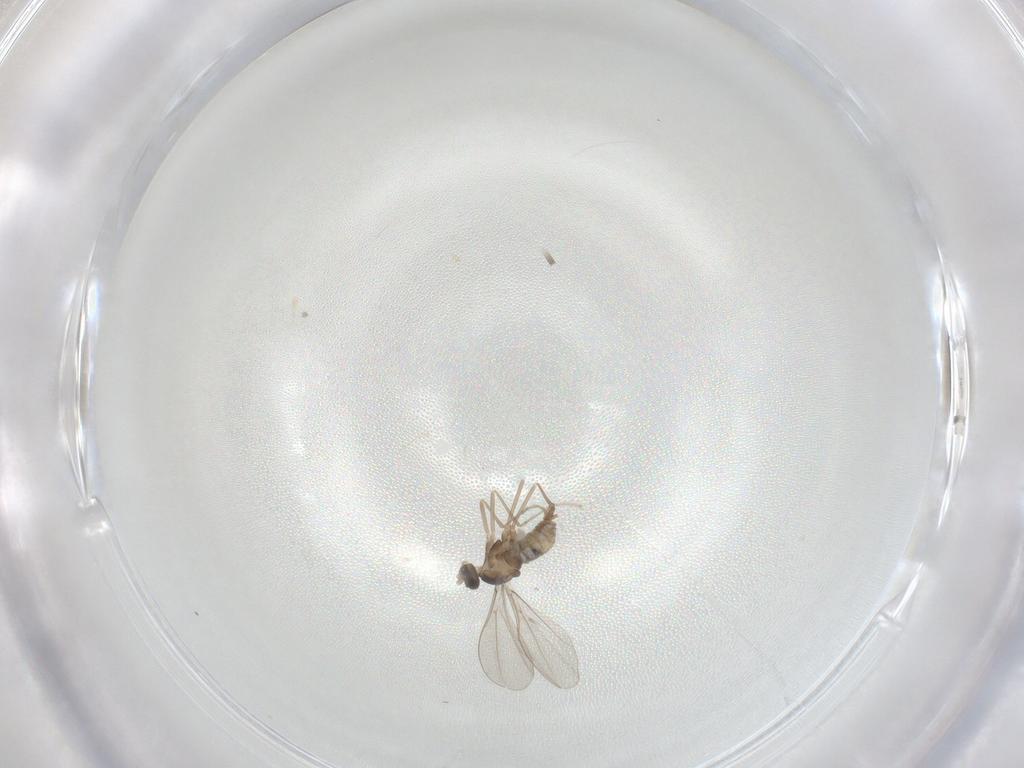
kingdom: Animalia
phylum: Arthropoda
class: Insecta
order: Diptera
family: Cecidomyiidae
